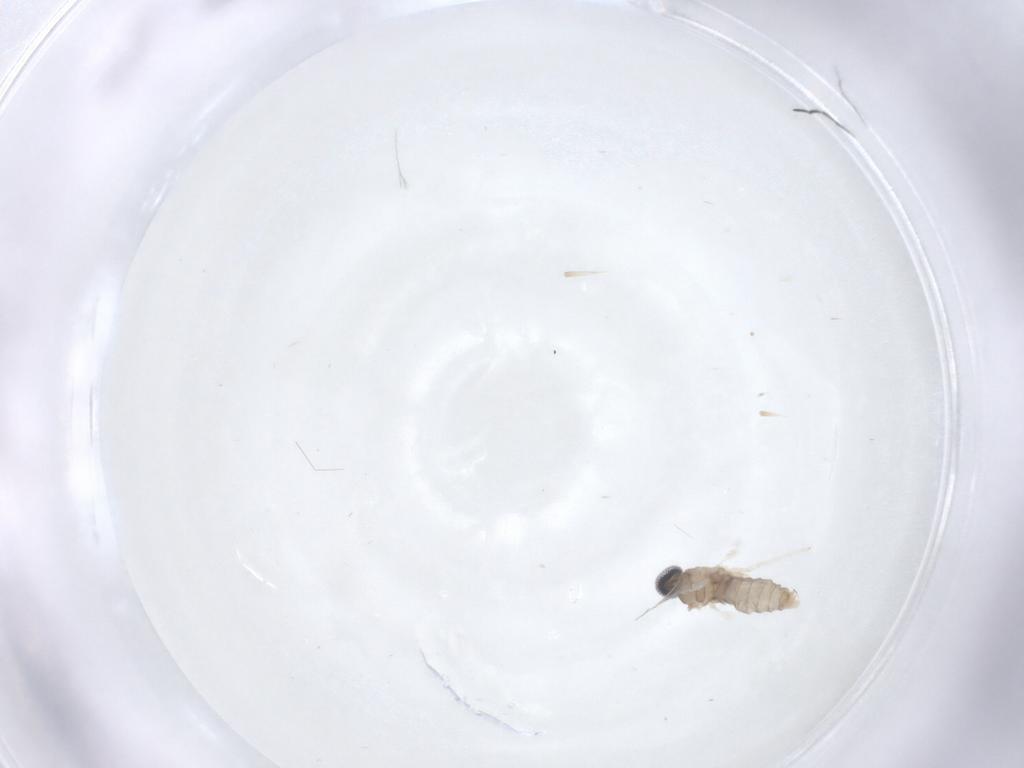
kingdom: Animalia
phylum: Arthropoda
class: Insecta
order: Diptera
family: Cecidomyiidae
